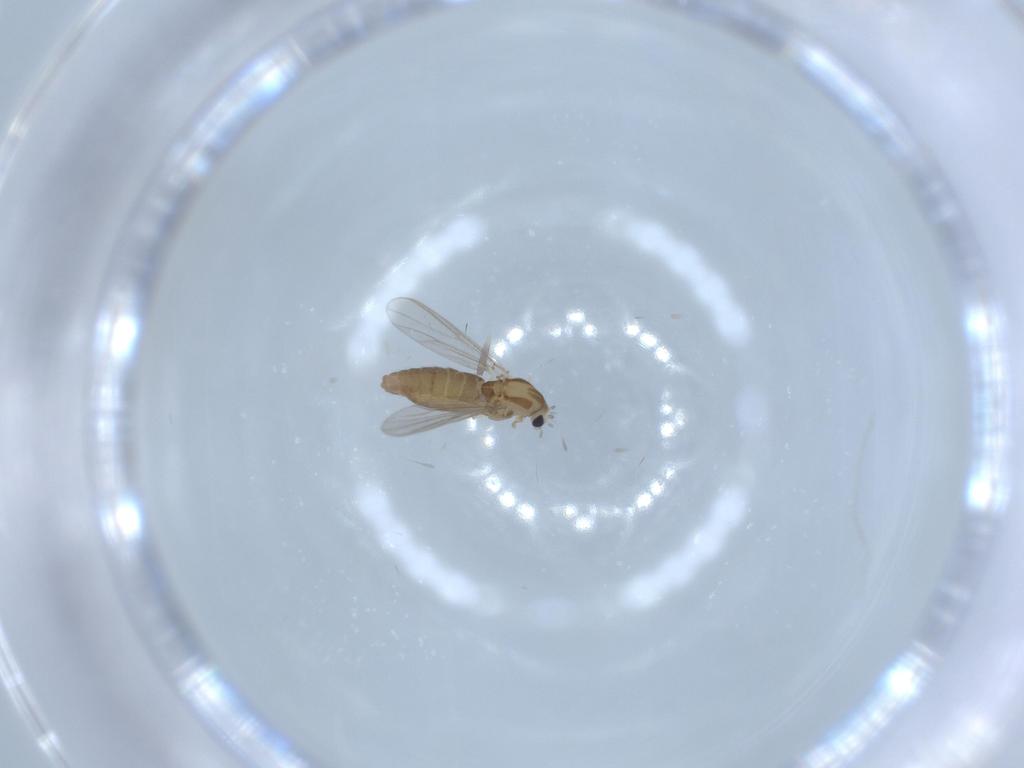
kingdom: Animalia
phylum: Arthropoda
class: Insecta
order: Diptera
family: Chironomidae
